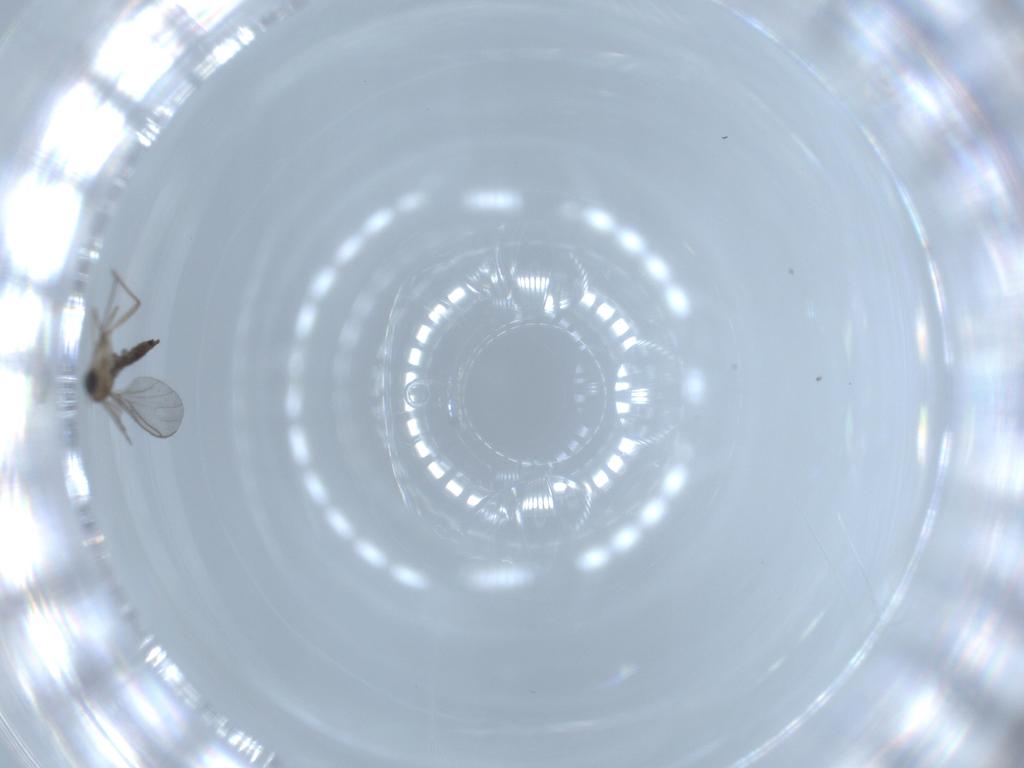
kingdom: Animalia
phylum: Arthropoda
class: Insecta
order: Diptera
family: Sciaridae
